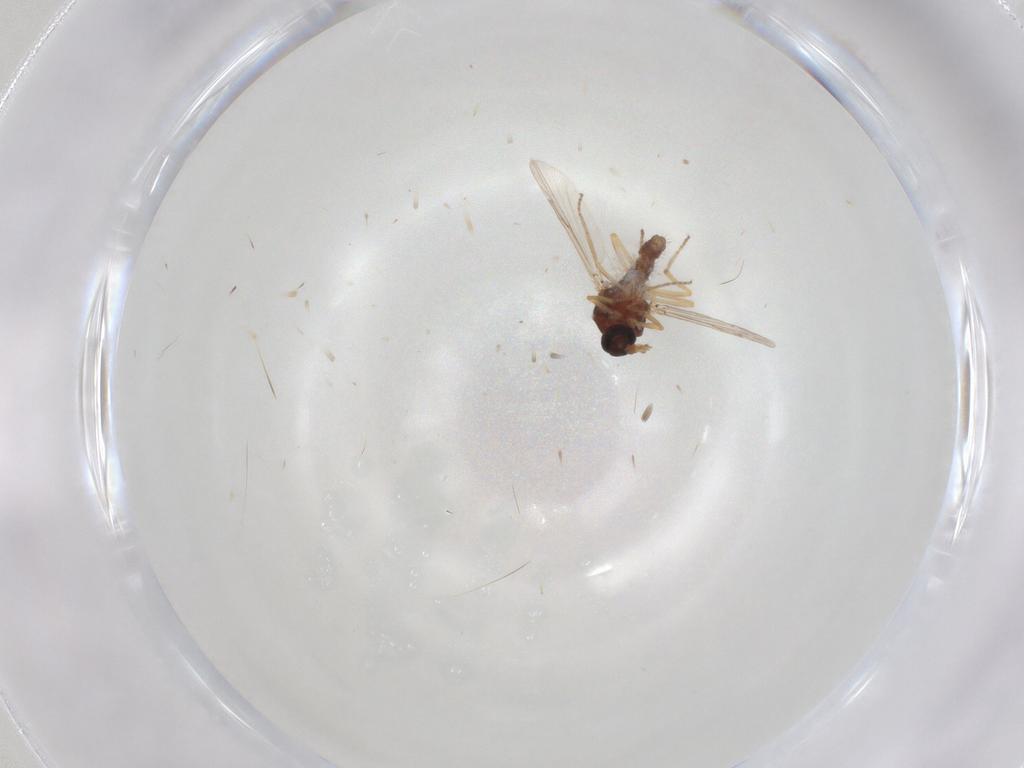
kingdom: Animalia
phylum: Arthropoda
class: Insecta
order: Diptera
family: Ceratopogonidae
